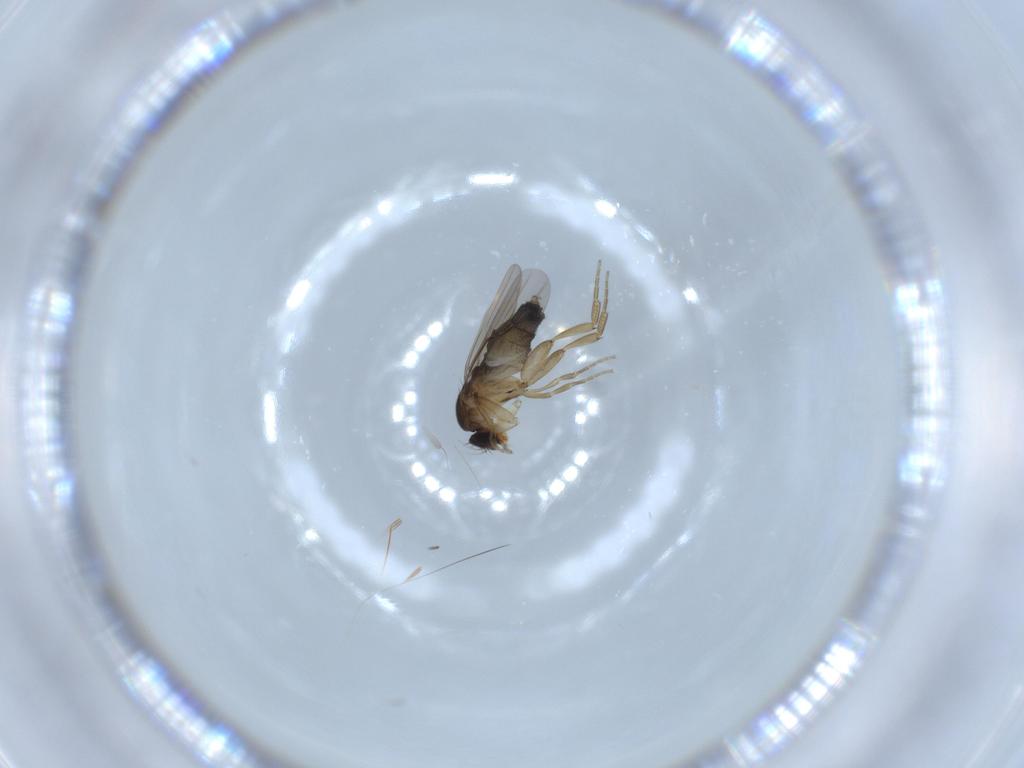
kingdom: Animalia
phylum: Arthropoda
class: Insecta
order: Diptera
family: Phoridae
